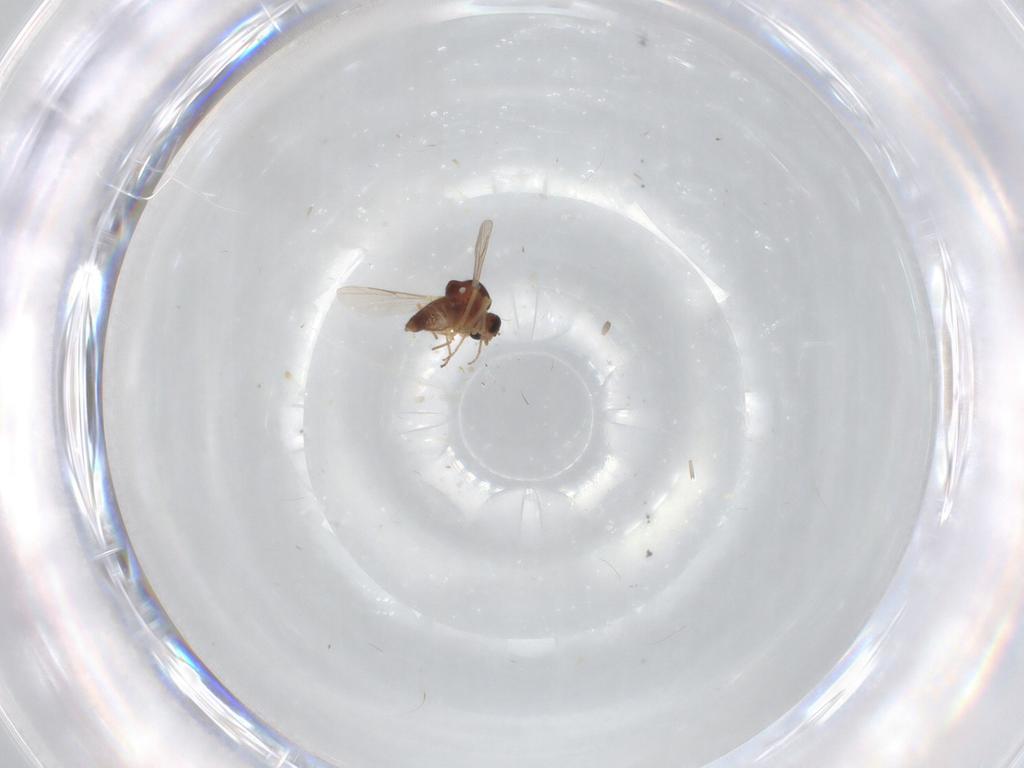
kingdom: Animalia
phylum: Arthropoda
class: Insecta
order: Diptera
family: Ceratopogonidae
